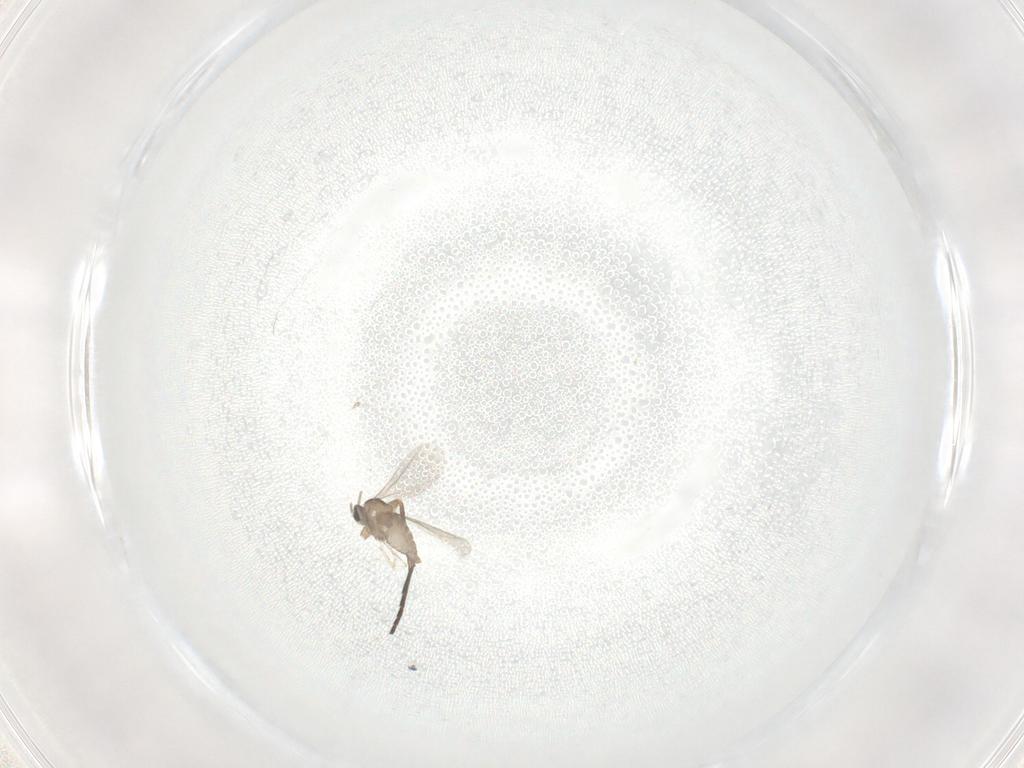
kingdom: Animalia
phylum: Arthropoda
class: Insecta
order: Diptera
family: Cecidomyiidae
